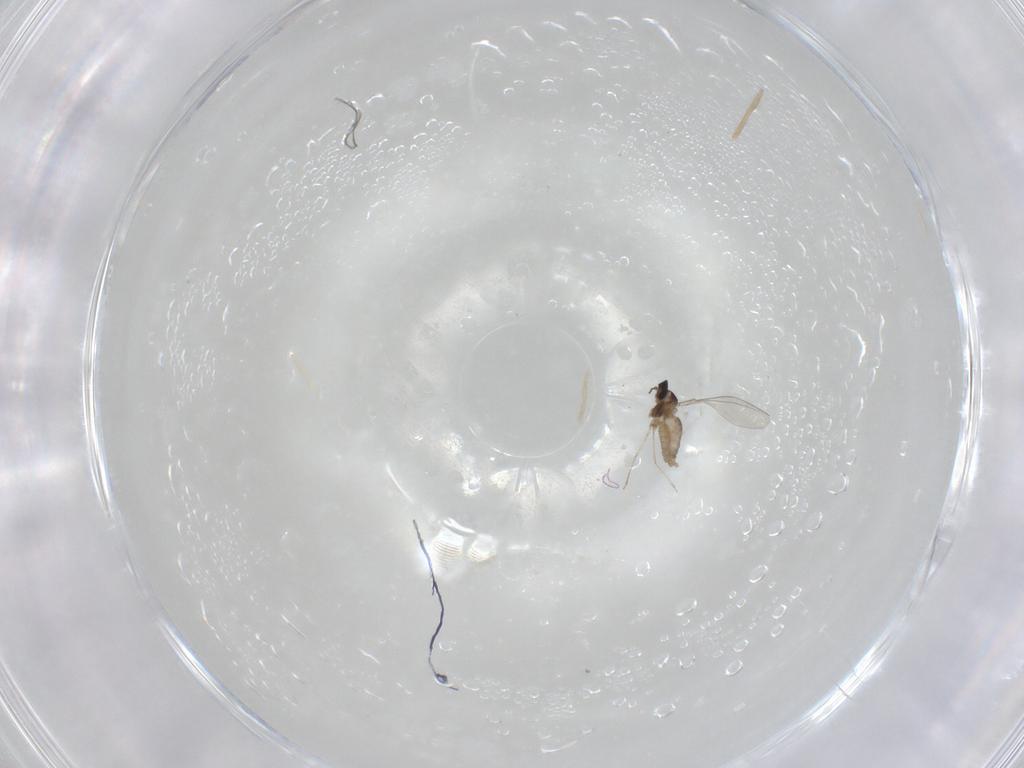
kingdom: Animalia
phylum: Arthropoda
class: Insecta
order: Diptera
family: Cecidomyiidae
